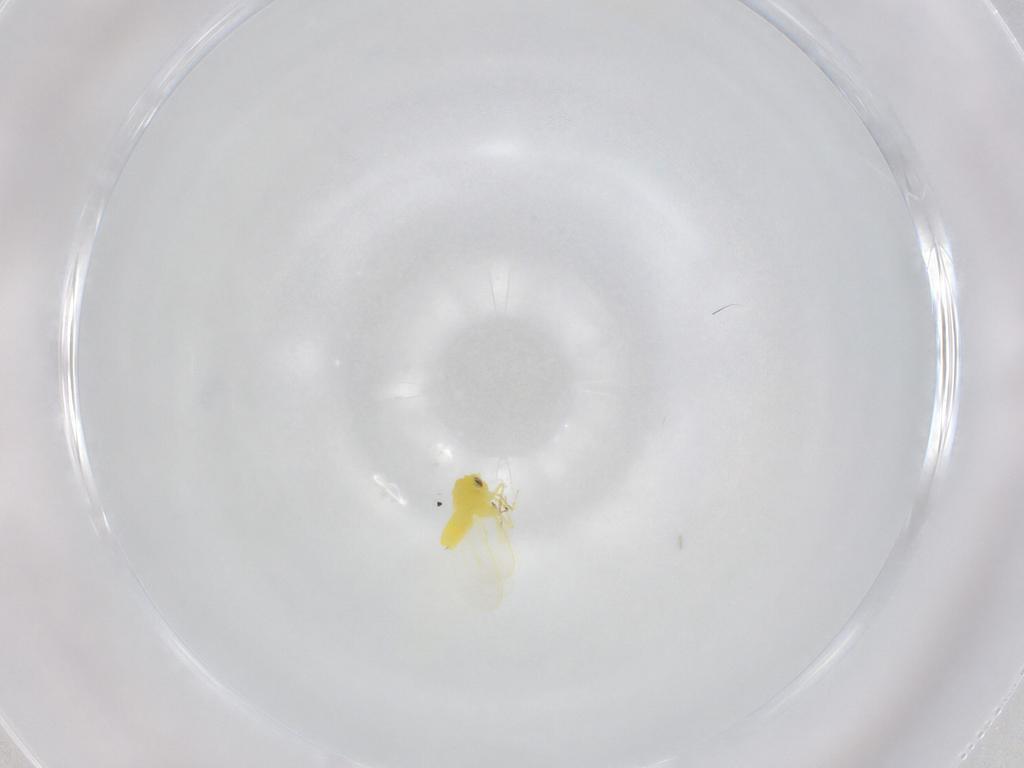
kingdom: Animalia
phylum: Arthropoda
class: Insecta
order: Hemiptera
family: Aleyrodidae
